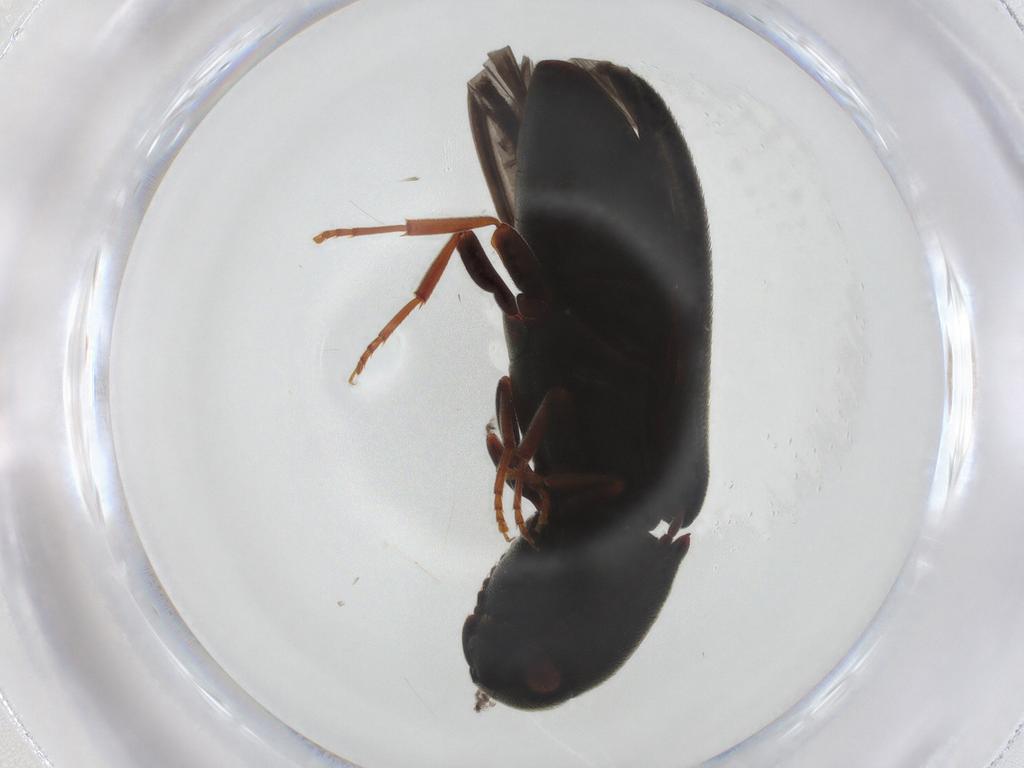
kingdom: Animalia
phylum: Arthropoda
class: Insecta
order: Coleoptera
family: Eucnemidae
